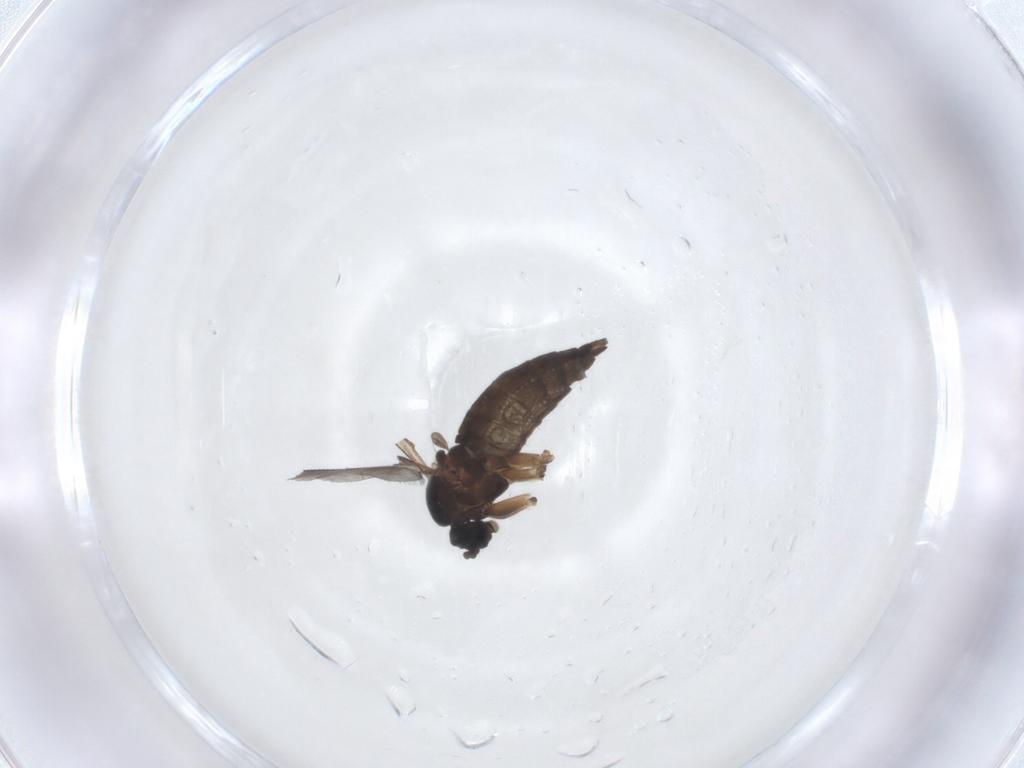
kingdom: Animalia
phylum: Arthropoda
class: Insecta
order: Diptera
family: Sciaridae
